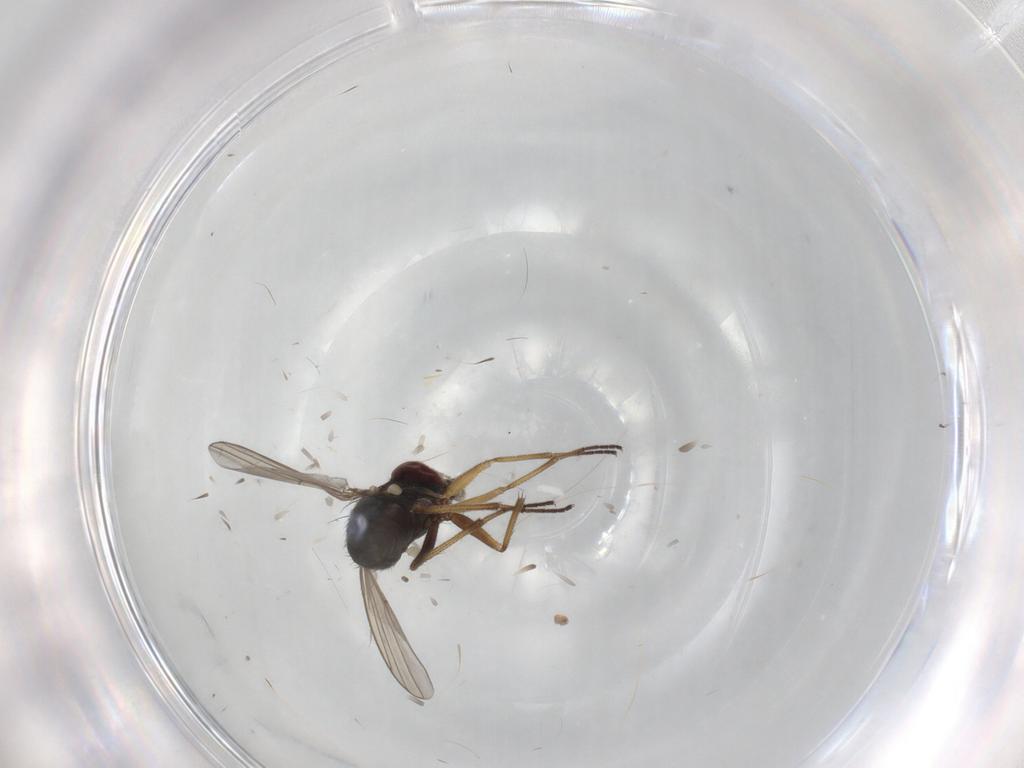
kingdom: Animalia
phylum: Arthropoda
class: Insecta
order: Diptera
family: Dolichopodidae
